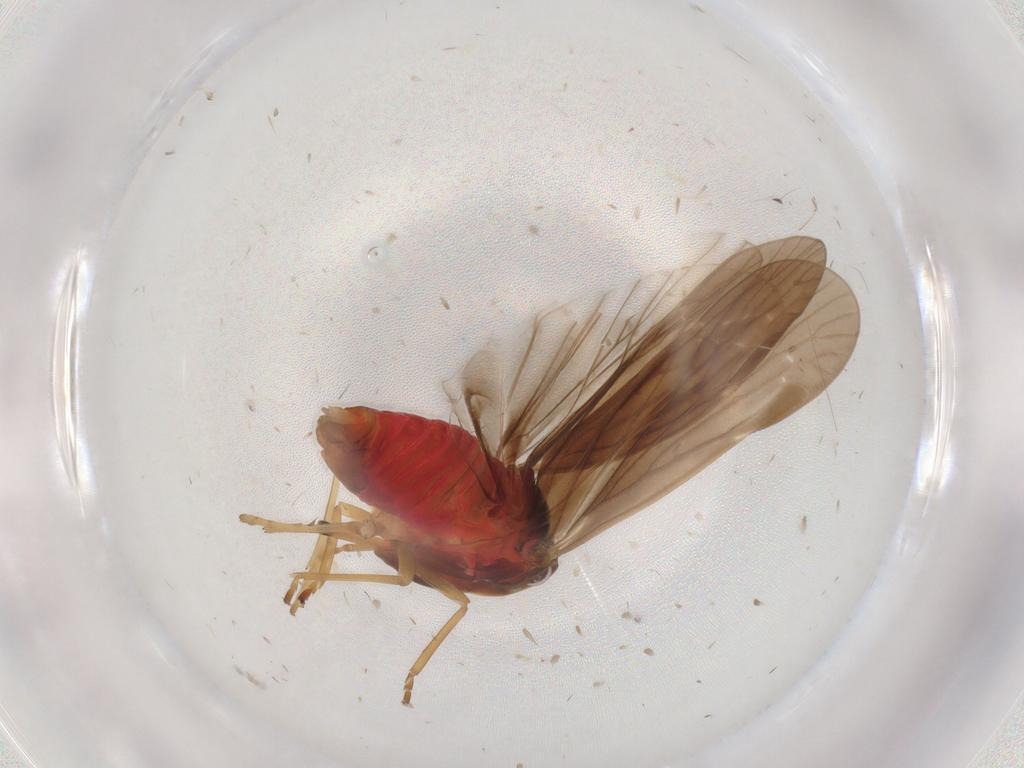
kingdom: Animalia
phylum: Arthropoda
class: Insecta
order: Hemiptera
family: Derbidae
